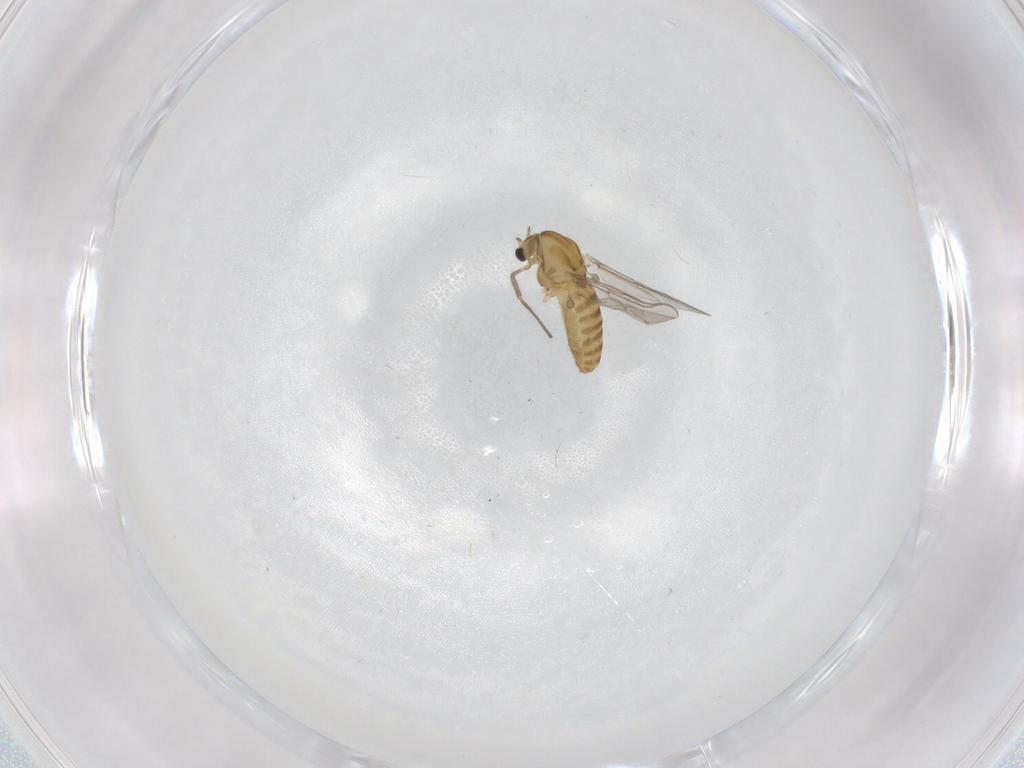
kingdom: Animalia
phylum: Arthropoda
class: Insecta
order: Diptera
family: Chironomidae
